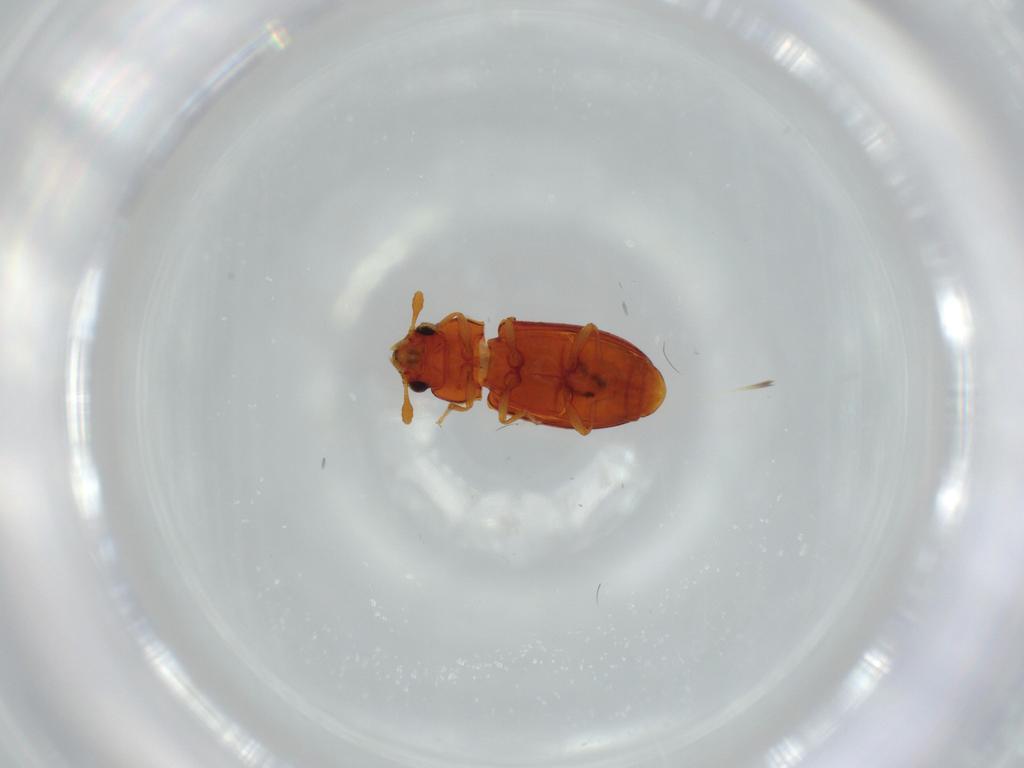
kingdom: Animalia
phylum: Arthropoda
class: Insecta
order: Coleoptera
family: Tenebrionidae
